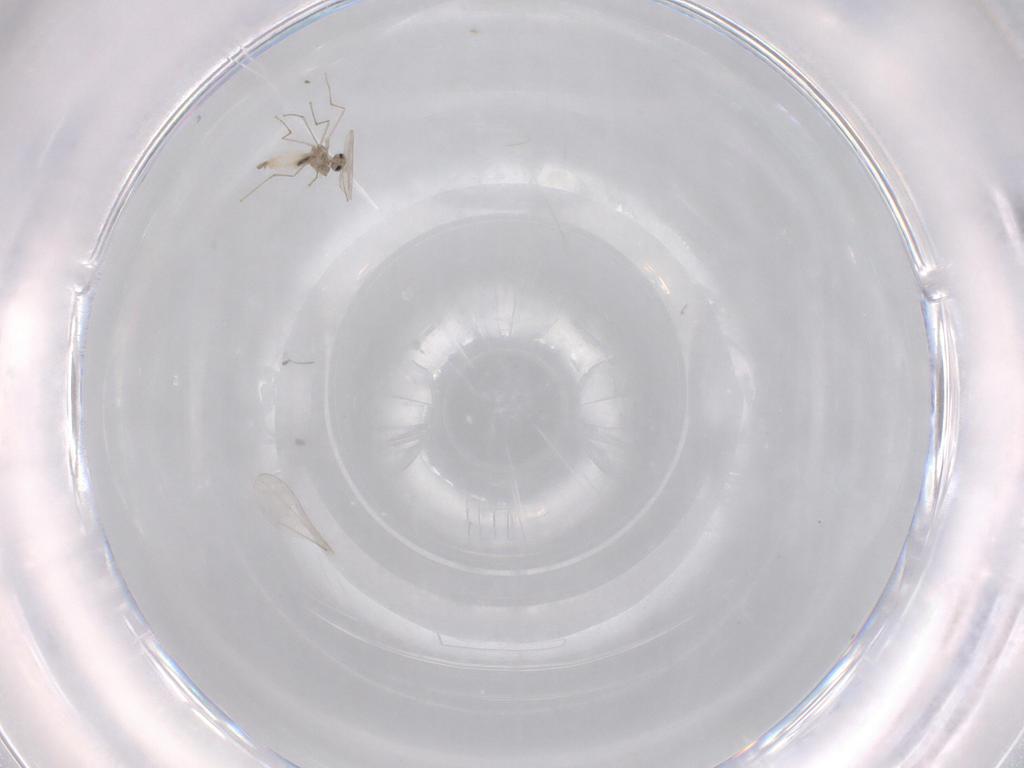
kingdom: Animalia
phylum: Arthropoda
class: Insecta
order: Diptera
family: Cecidomyiidae
